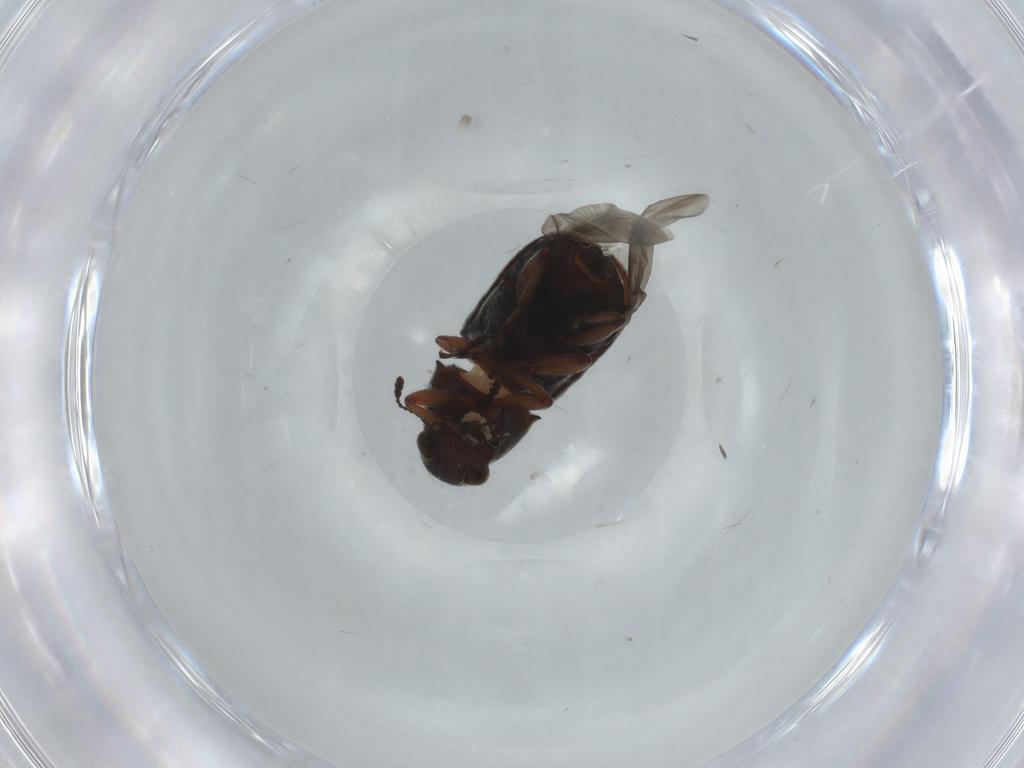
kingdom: Animalia
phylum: Arthropoda
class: Insecta
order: Coleoptera
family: Anthribidae
